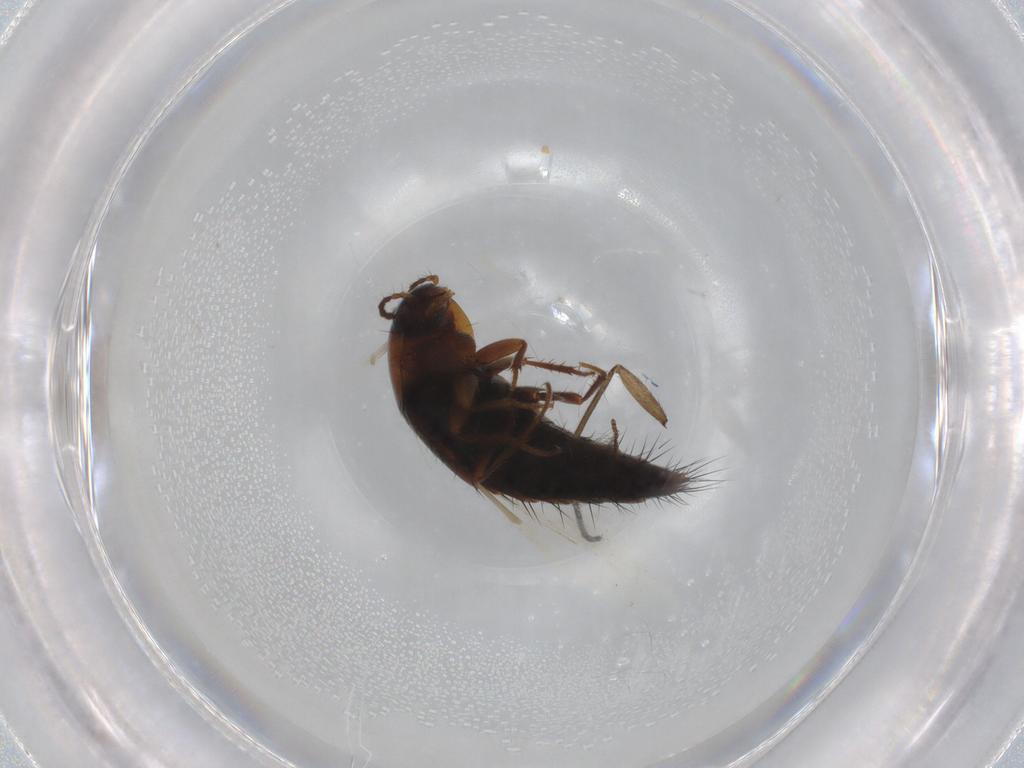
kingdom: Animalia
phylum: Arthropoda
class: Insecta
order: Coleoptera
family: Staphylinidae
